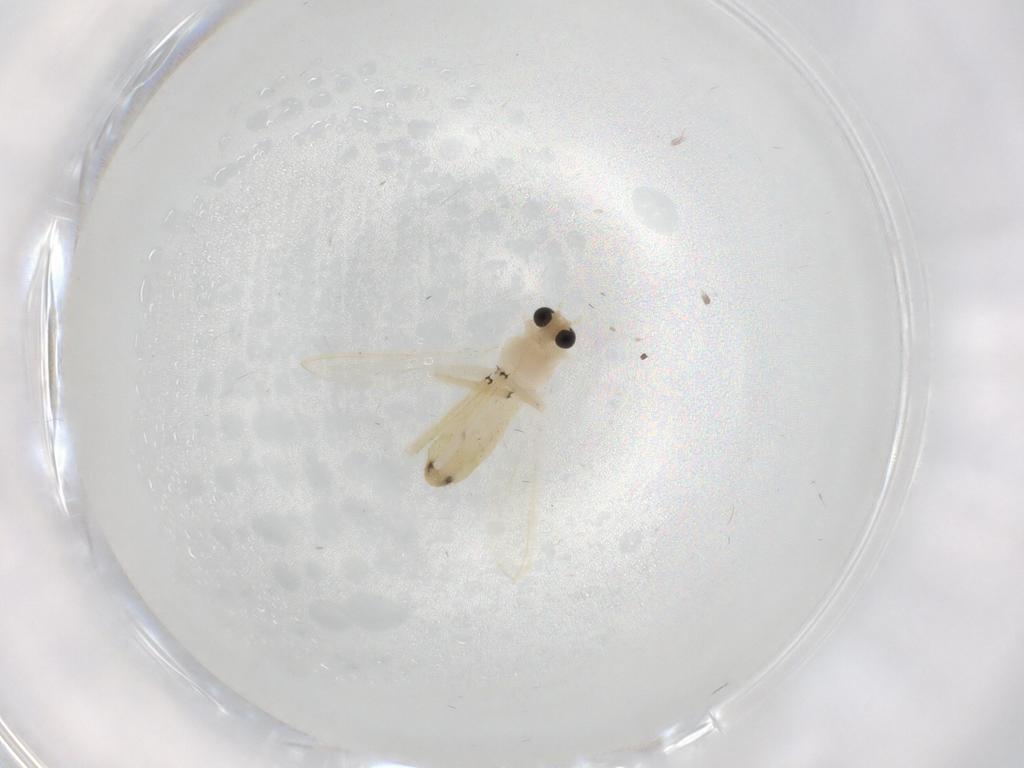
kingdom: Animalia
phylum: Arthropoda
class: Insecta
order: Diptera
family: Chironomidae
